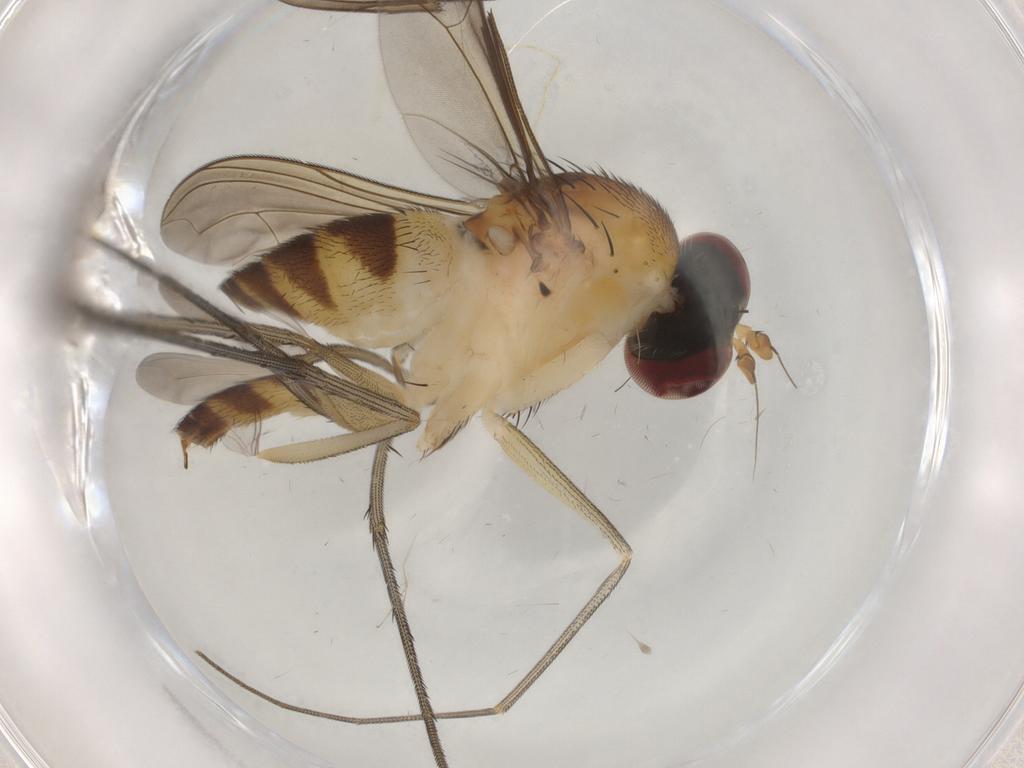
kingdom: Animalia
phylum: Arthropoda
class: Insecta
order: Diptera
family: Dolichopodidae
